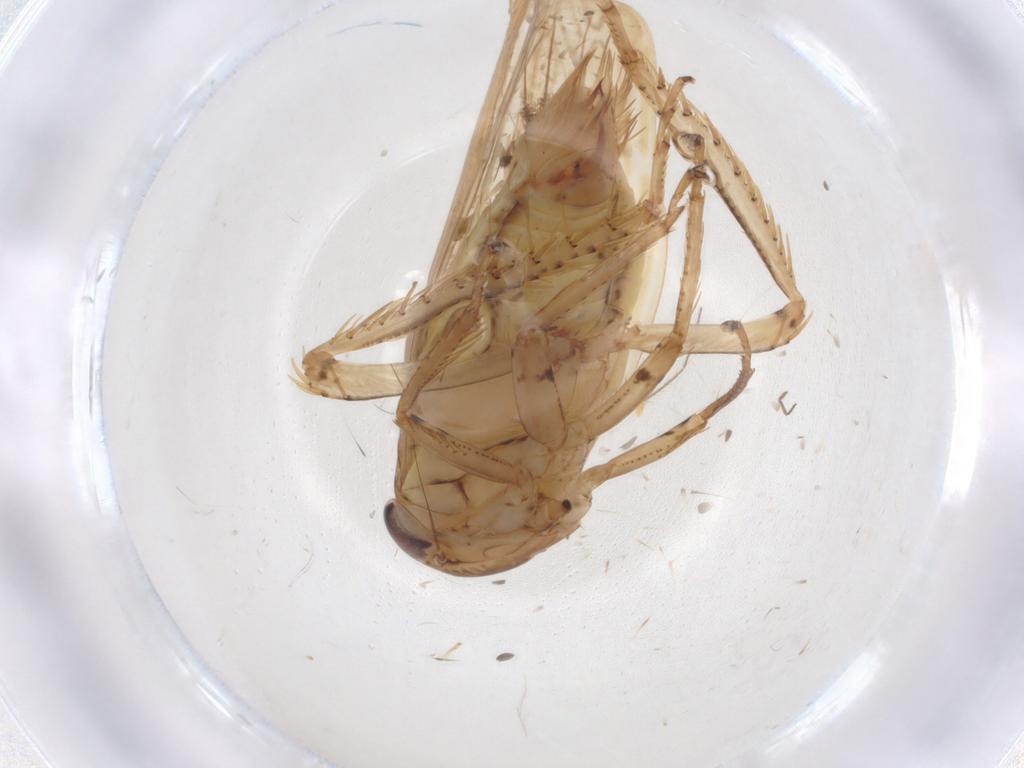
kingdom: Animalia
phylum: Arthropoda
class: Insecta
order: Hemiptera
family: Cicadellidae
